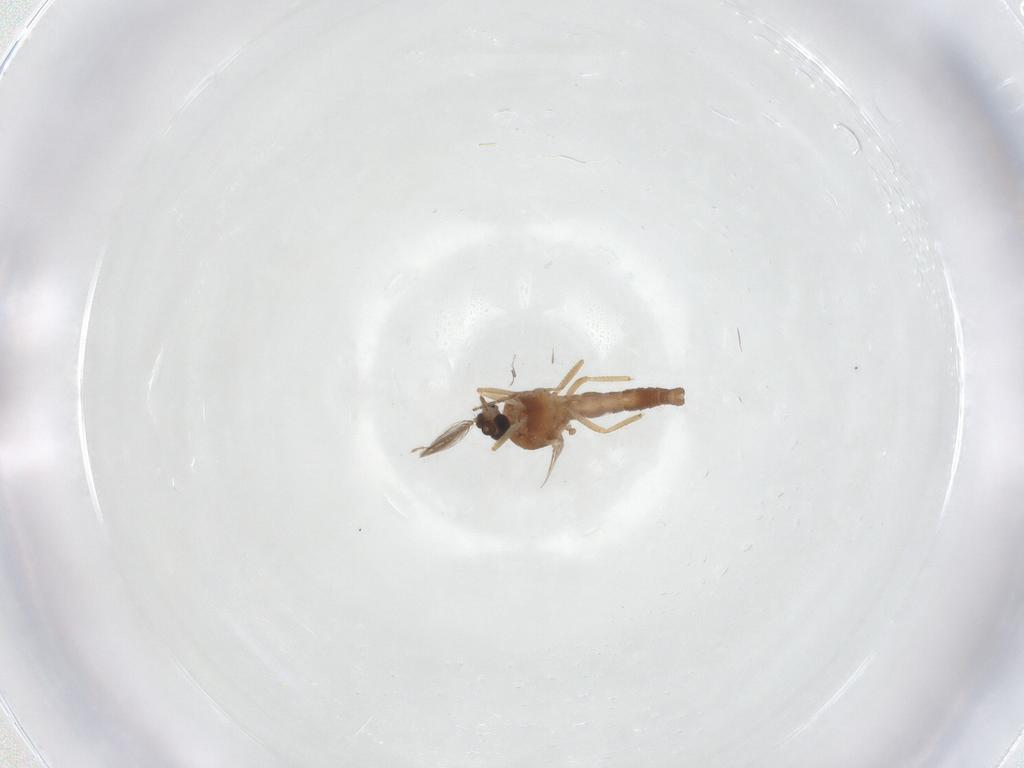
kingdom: Animalia
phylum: Arthropoda
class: Insecta
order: Diptera
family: Ceratopogonidae
